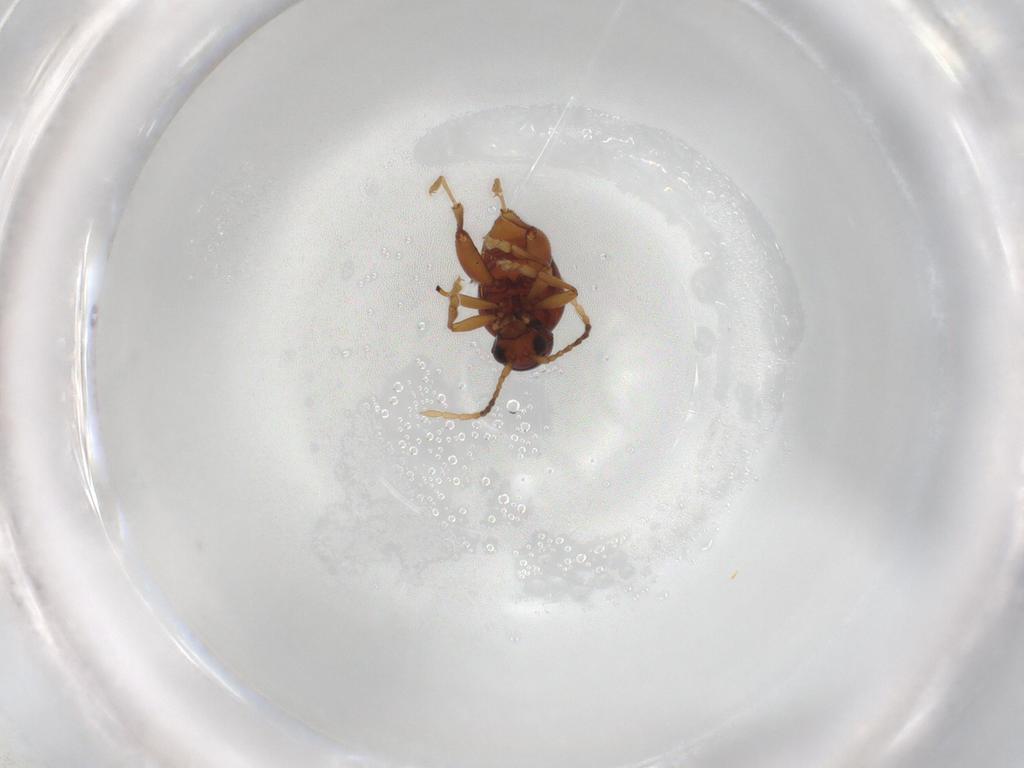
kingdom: Animalia
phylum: Arthropoda
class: Insecta
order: Coleoptera
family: Chrysomelidae
